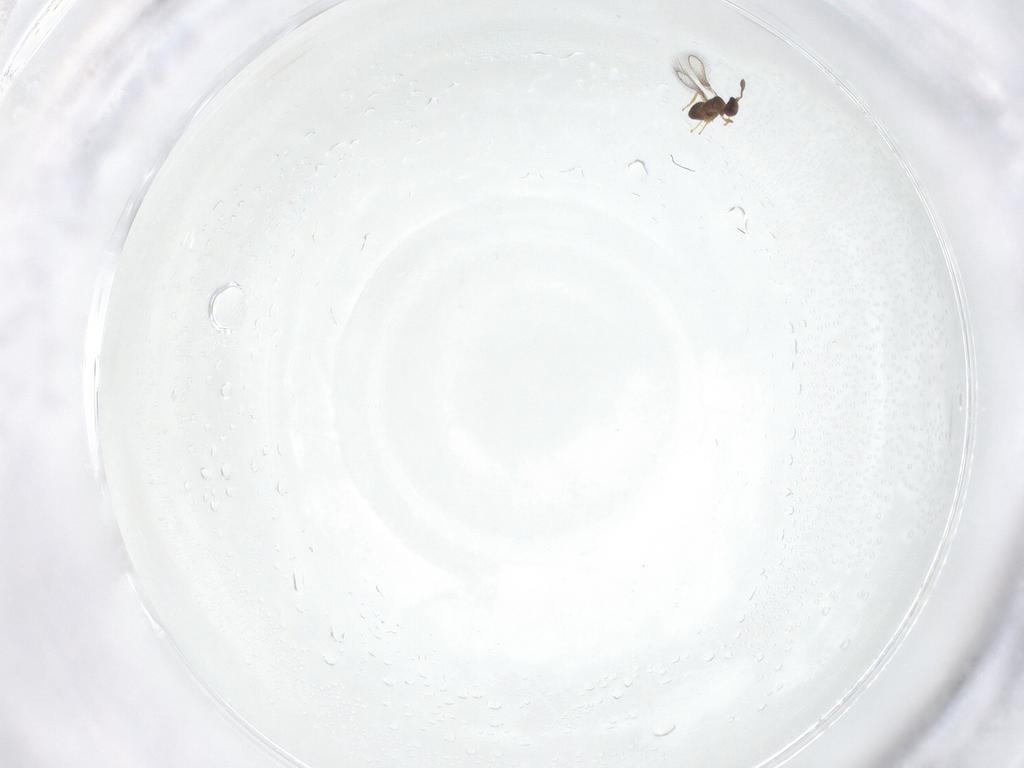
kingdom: Animalia
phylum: Arthropoda
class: Insecta
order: Hymenoptera
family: Mymaridae
